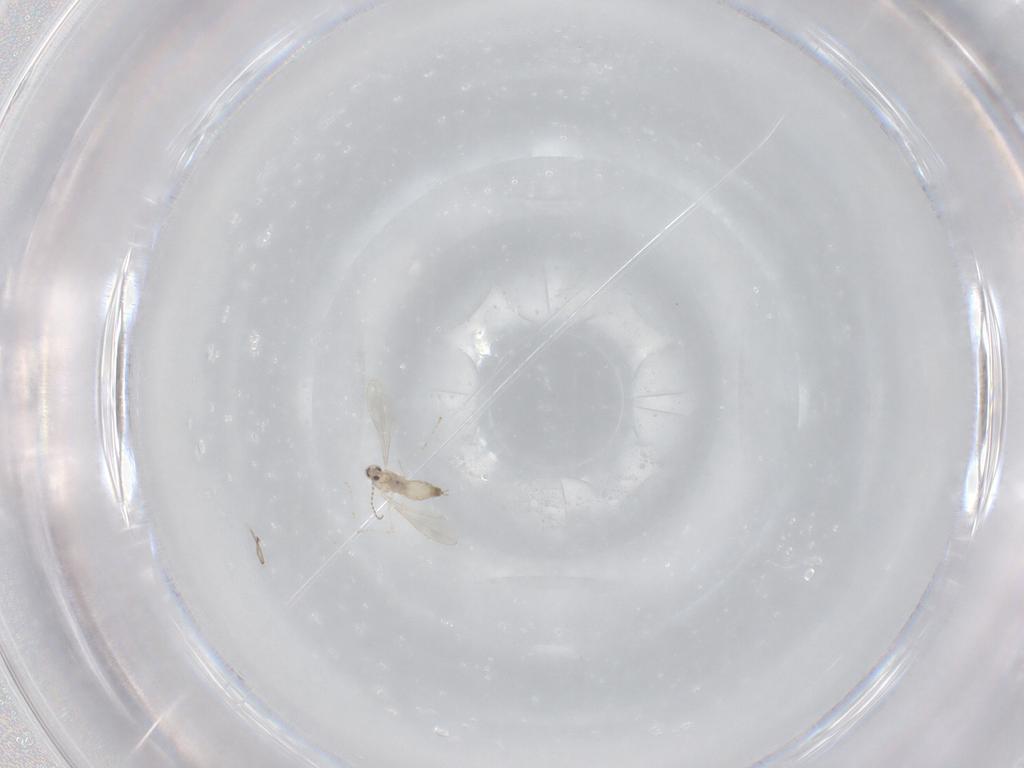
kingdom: Animalia
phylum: Arthropoda
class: Insecta
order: Diptera
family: Cecidomyiidae
